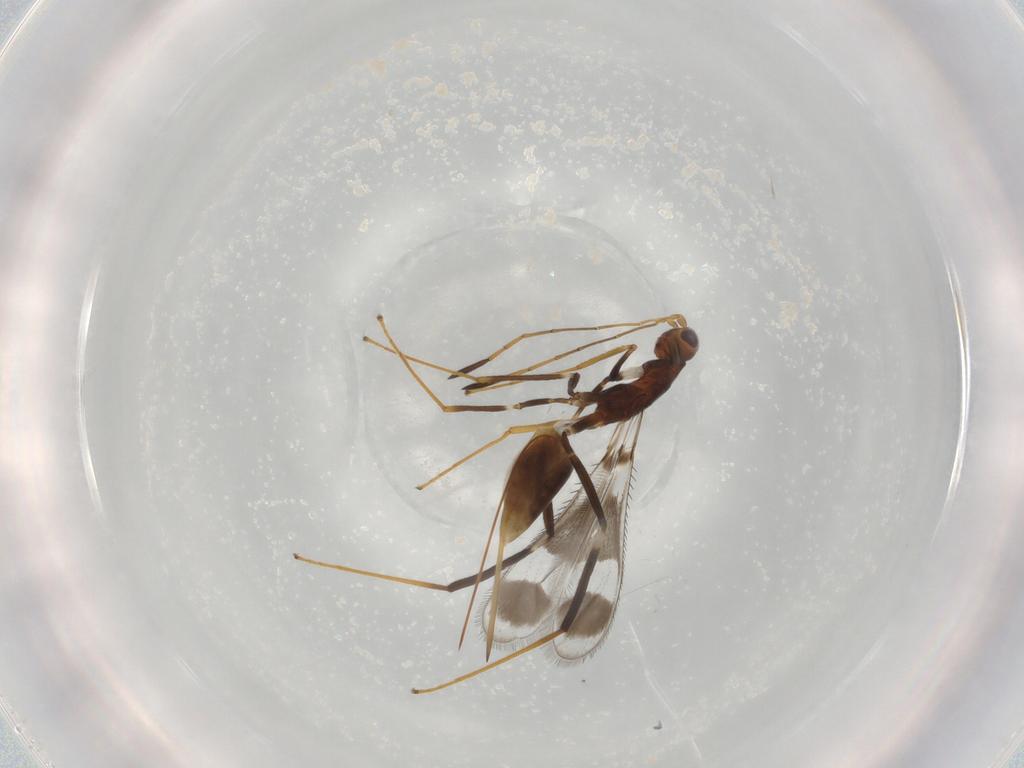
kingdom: Animalia
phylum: Arthropoda
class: Insecta
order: Hymenoptera
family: Mymaridae
